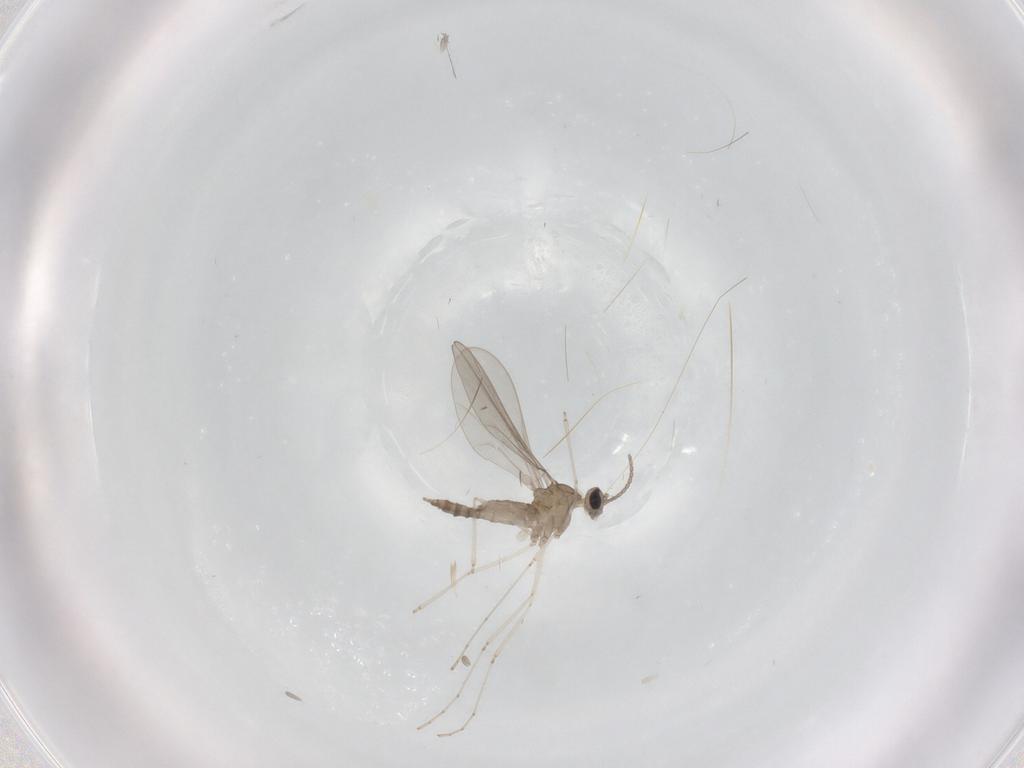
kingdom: Animalia
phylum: Arthropoda
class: Insecta
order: Diptera
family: Cecidomyiidae
